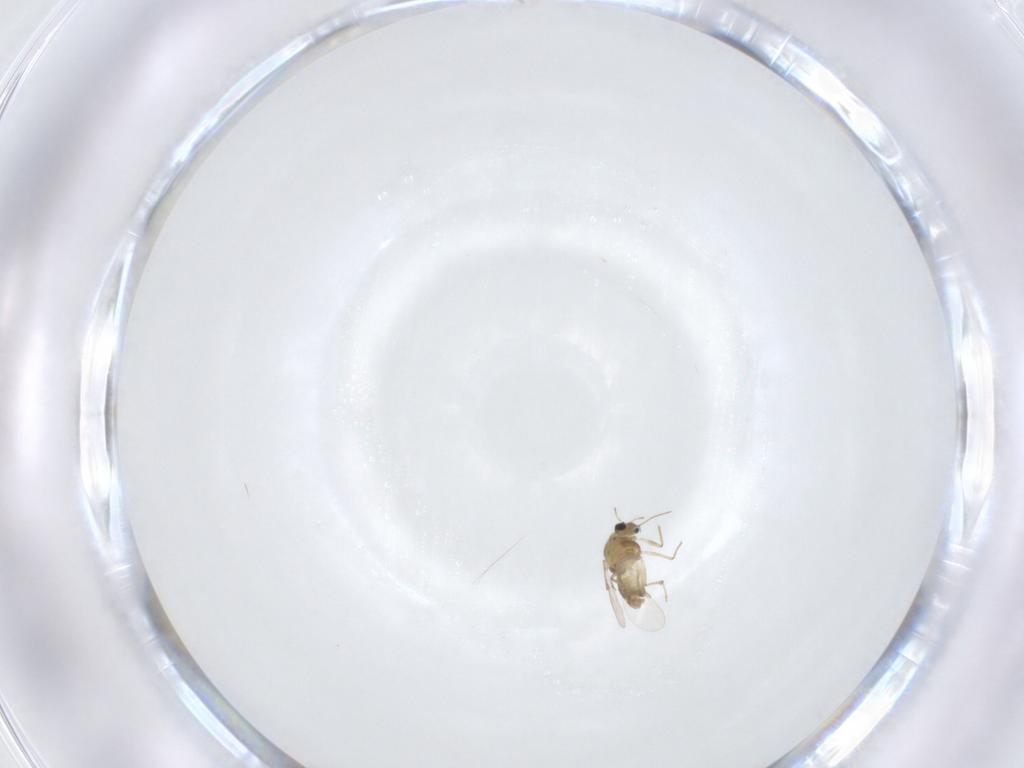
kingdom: Animalia
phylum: Arthropoda
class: Insecta
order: Diptera
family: Chironomidae
